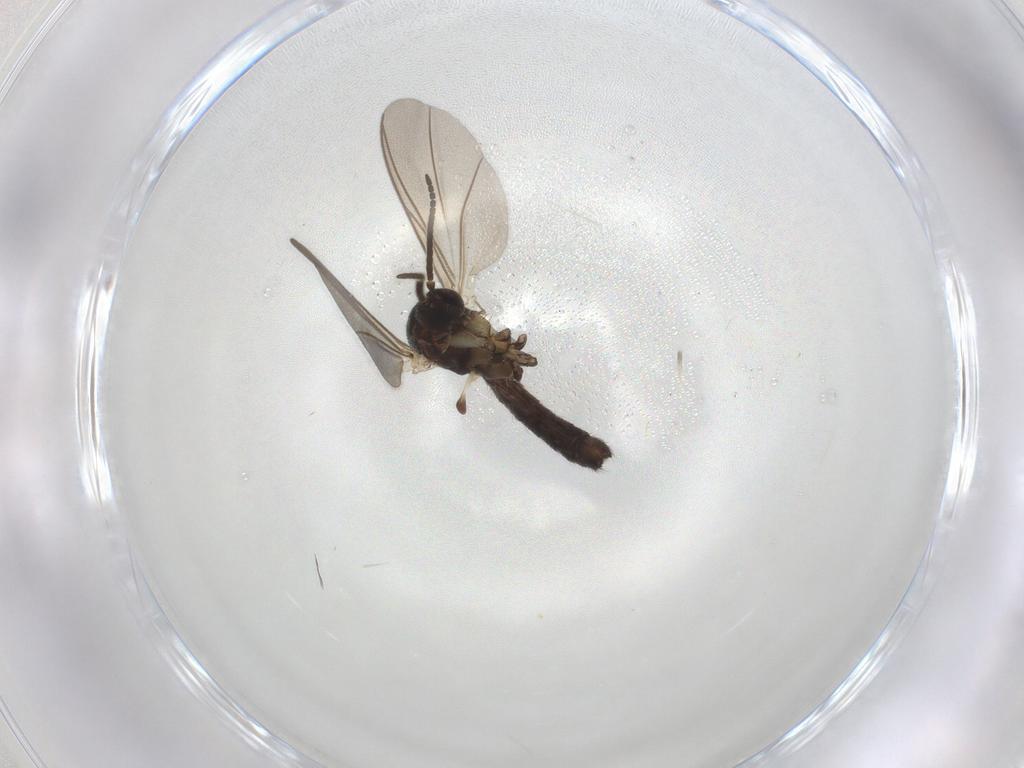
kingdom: Animalia
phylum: Arthropoda
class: Insecta
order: Diptera
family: Mycetophilidae
